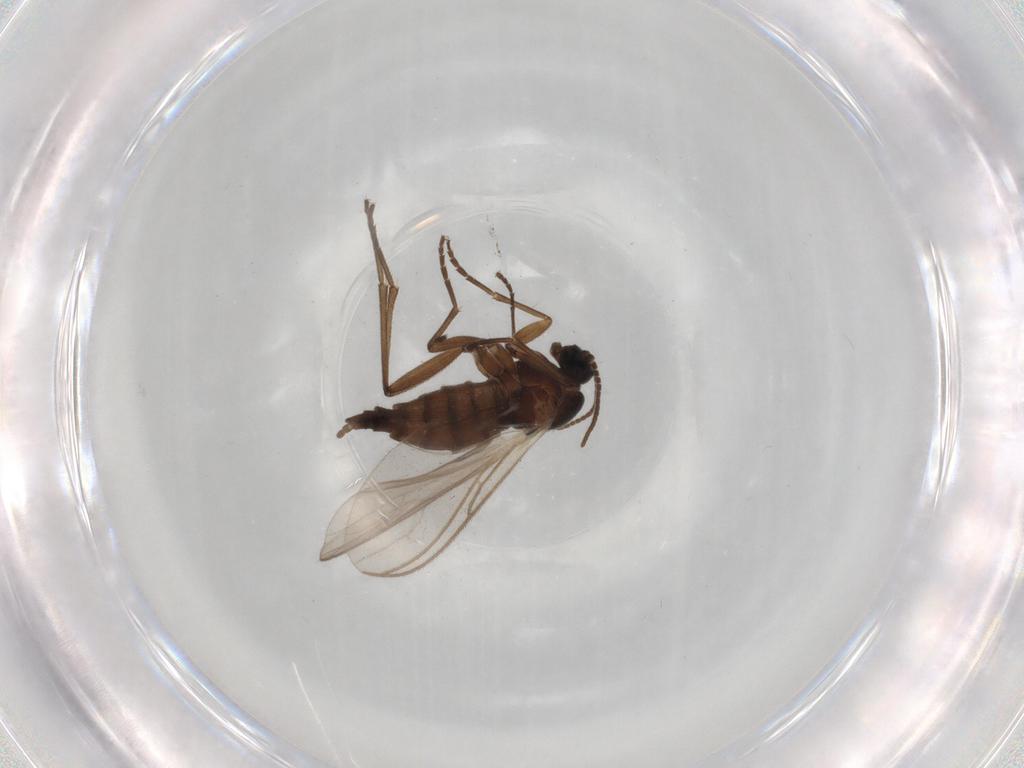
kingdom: Animalia
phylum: Arthropoda
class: Insecta
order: Diptera
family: Sciaridae
